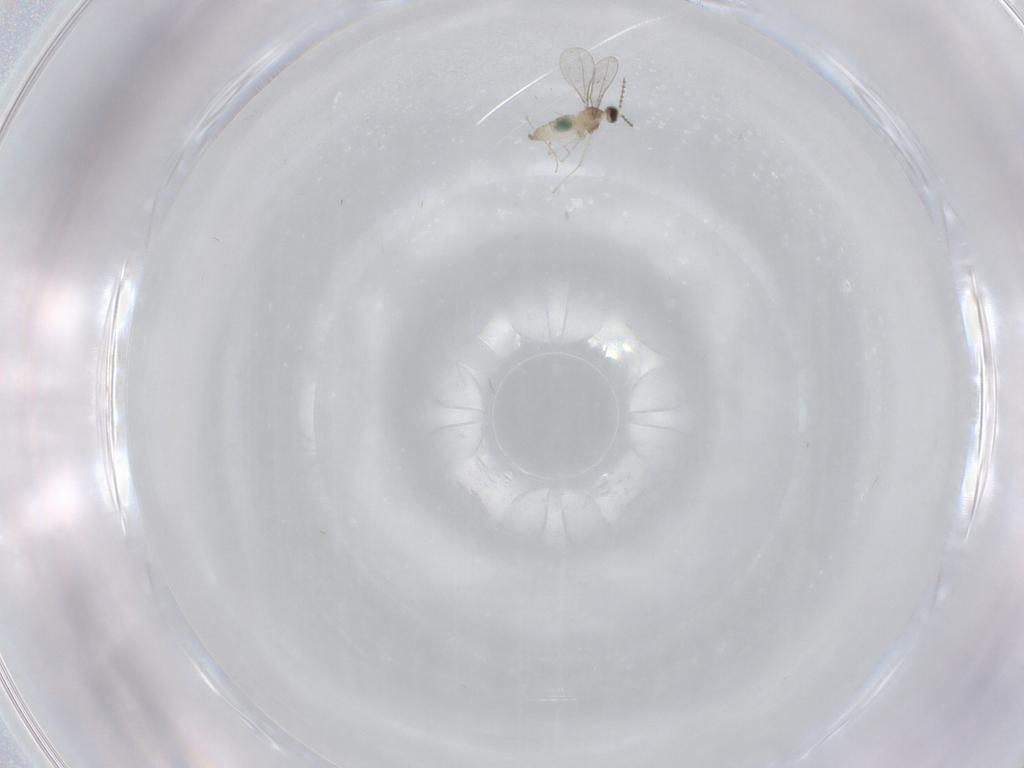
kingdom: Animalia
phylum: Arthropoda
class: Insecta
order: Diptera
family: Cecidomyiidae
